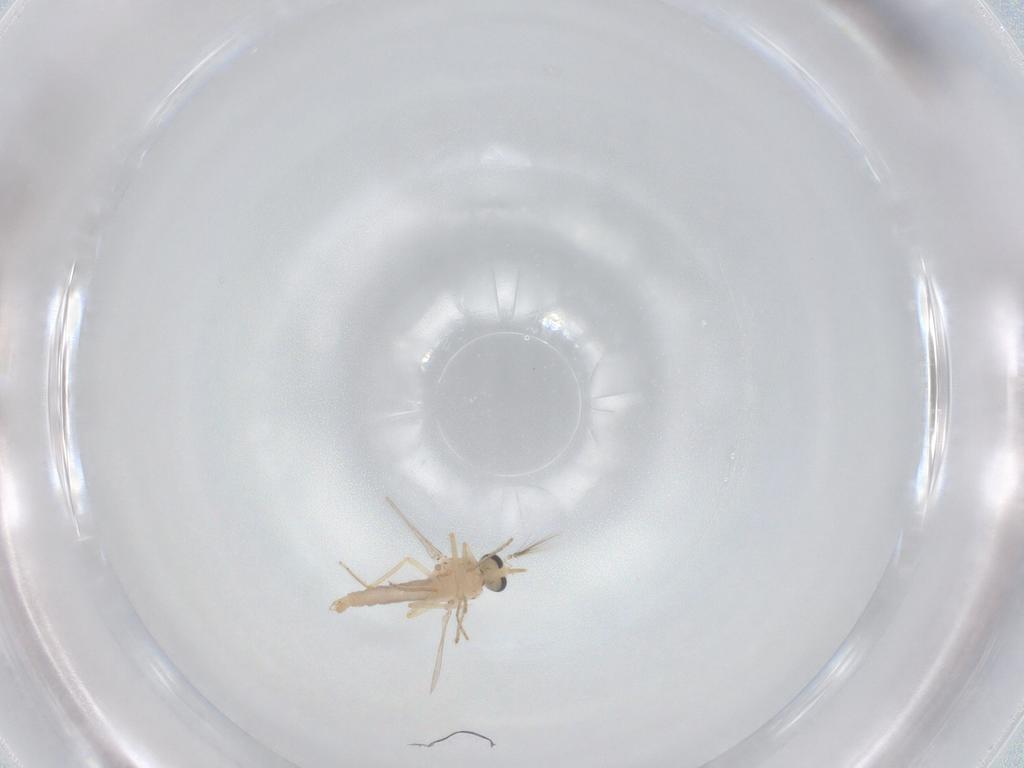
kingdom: Animalia
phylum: Arthropoda
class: Insecta
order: Diptera
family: Ceratopogonidae
